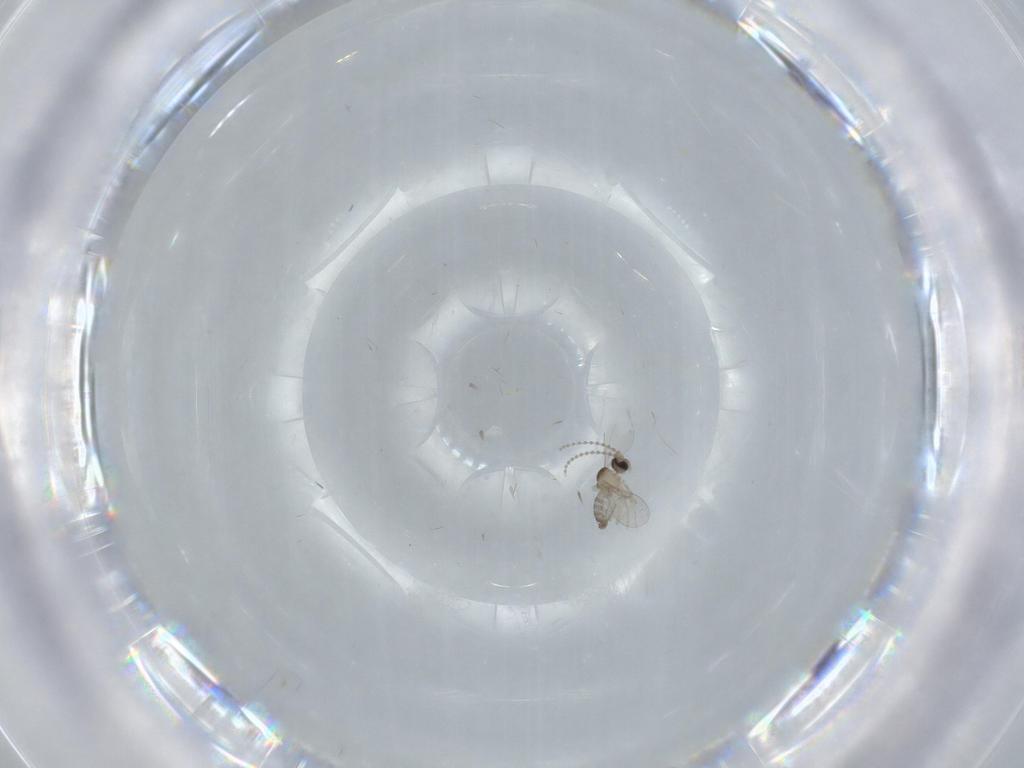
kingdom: Animalia
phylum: Arthropoda
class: Insecta
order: Diptera
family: Cecidomyiidae
